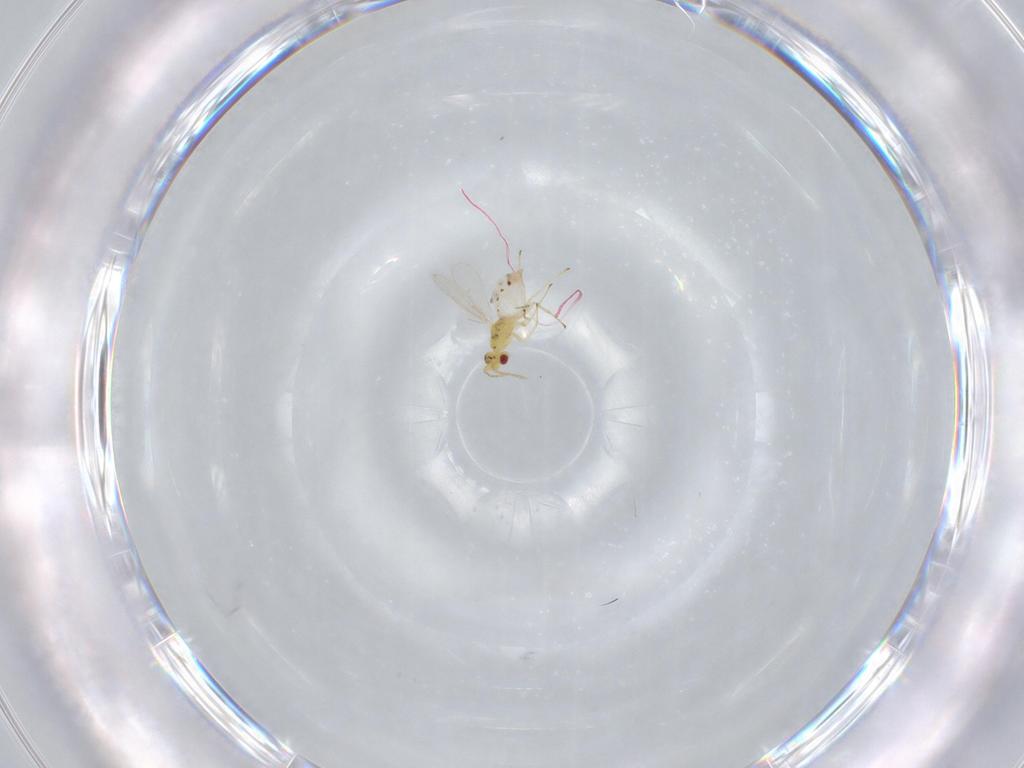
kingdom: Animalia
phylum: Arthropoda
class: Insecta
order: Hymenoptera
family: Eulophidae
